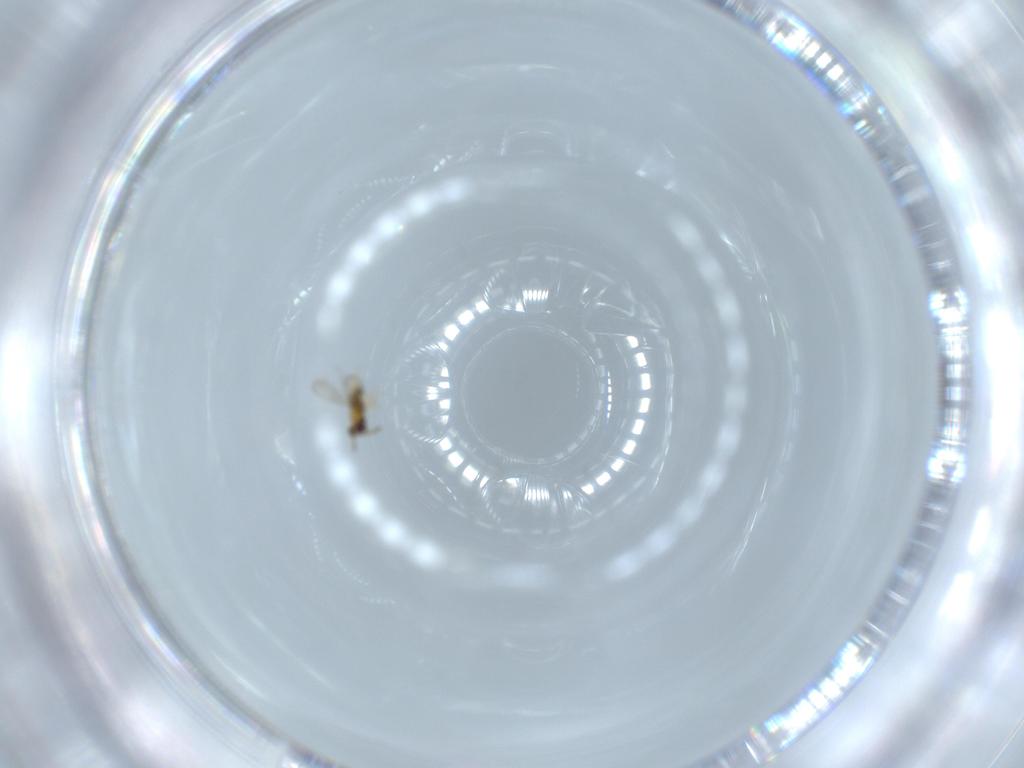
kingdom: Animalia
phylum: Arthropoda
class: Insecta
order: Hymenoptera
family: Aphelinidae
